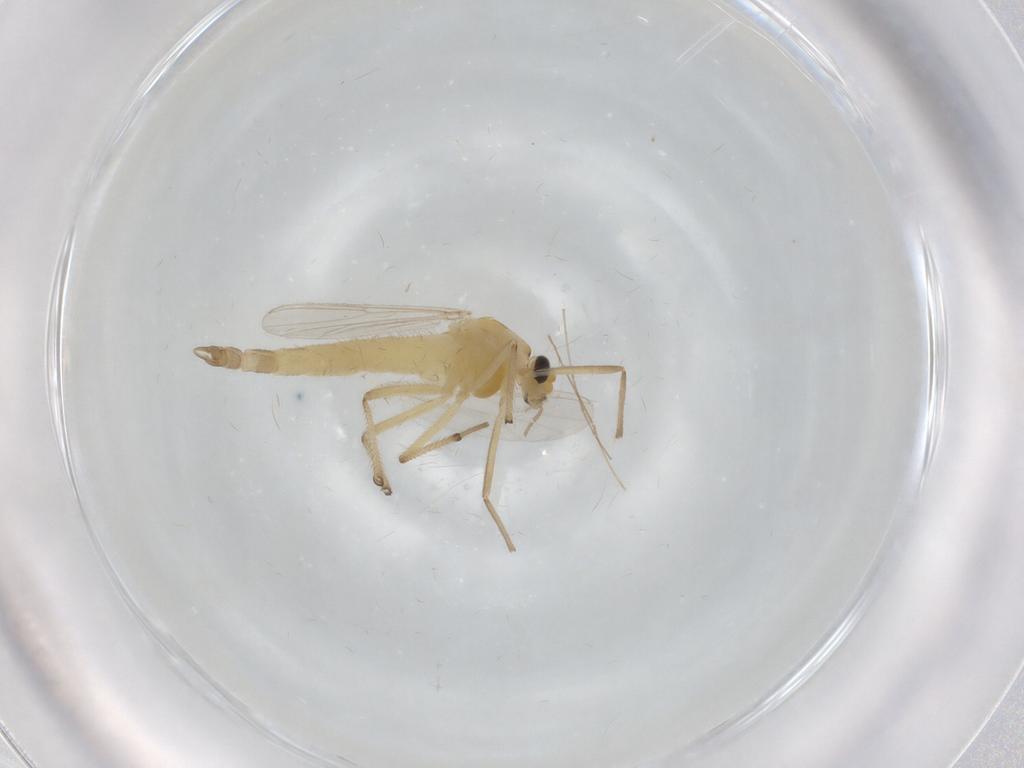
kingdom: Animalia
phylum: Arthropoda
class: Insecta
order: Diptera
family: Chironomidae
